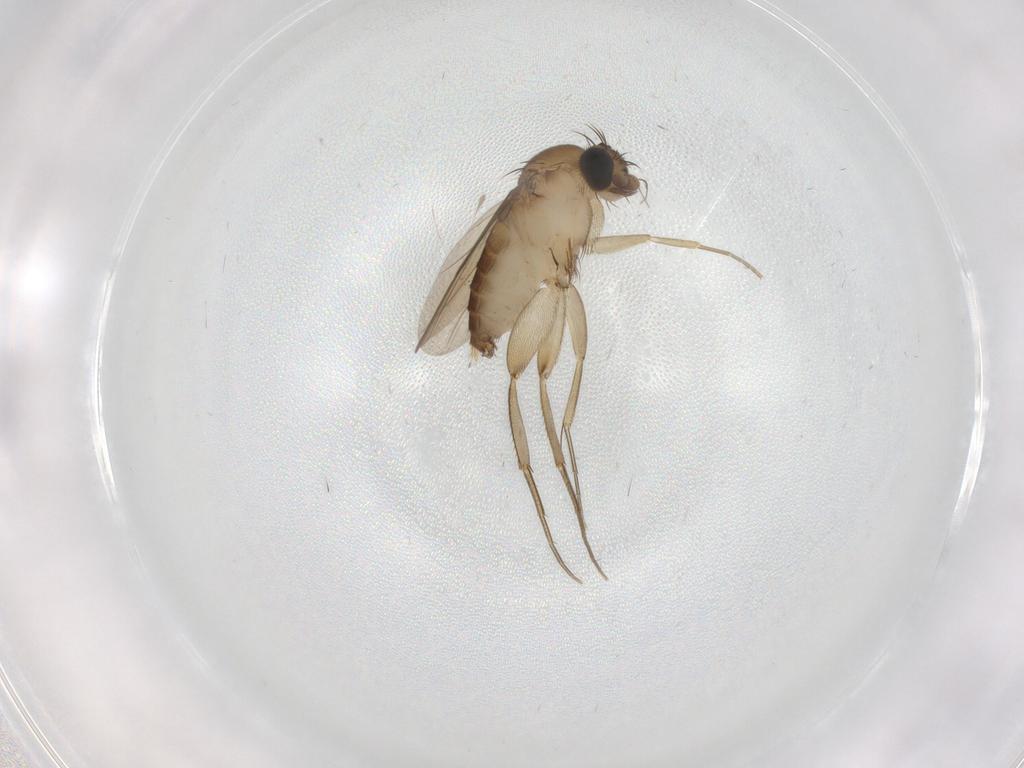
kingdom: Animalia
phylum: Arthropoda
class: Insecta
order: Diptera
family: Phoridae
